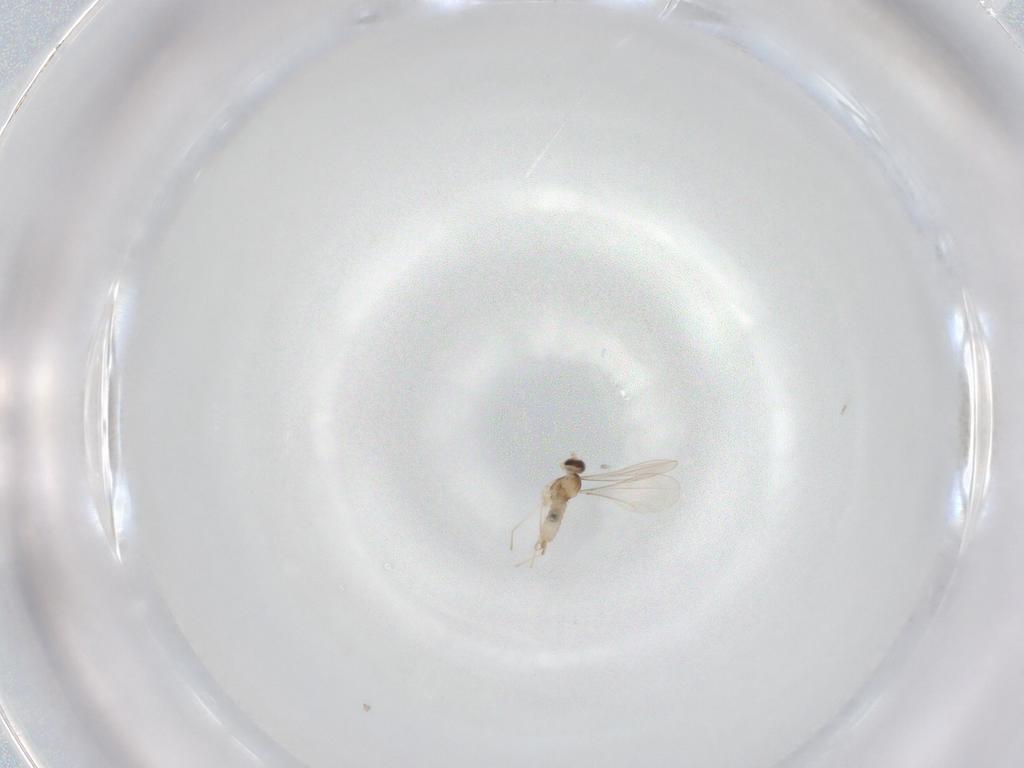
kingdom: Animalia
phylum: Arthropoda
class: Insecta
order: Diptera
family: Cecidomyiidae
